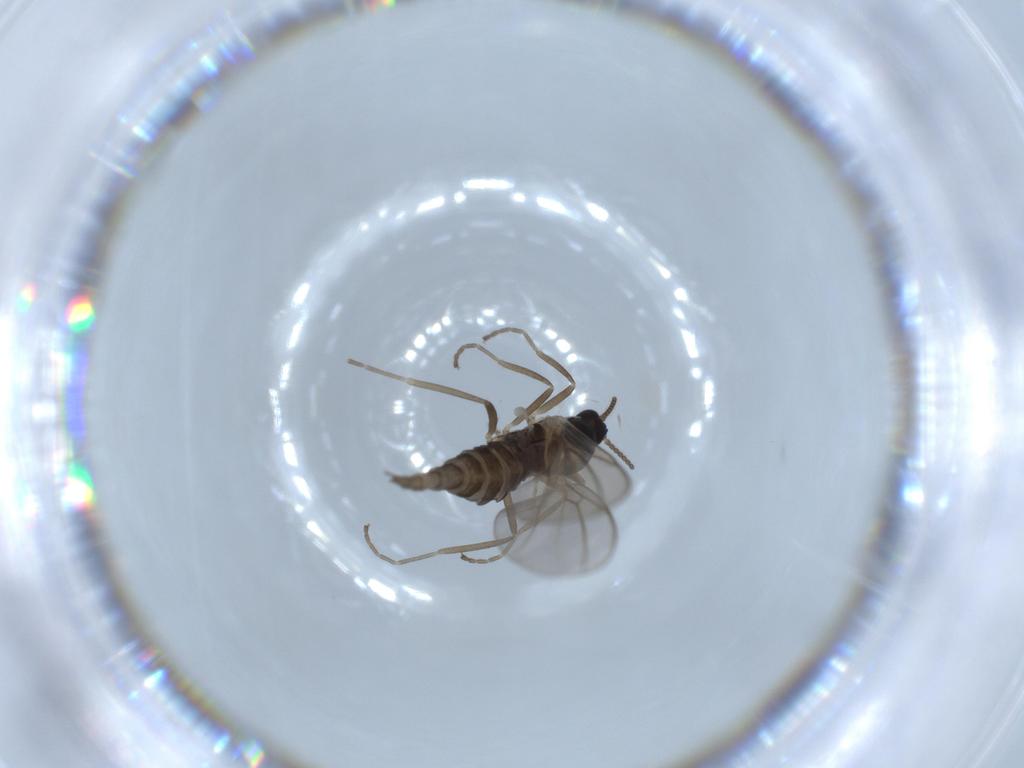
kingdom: Animalia
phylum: Arthropoda
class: Insecta
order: Diptera
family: Cecidomyiidae
